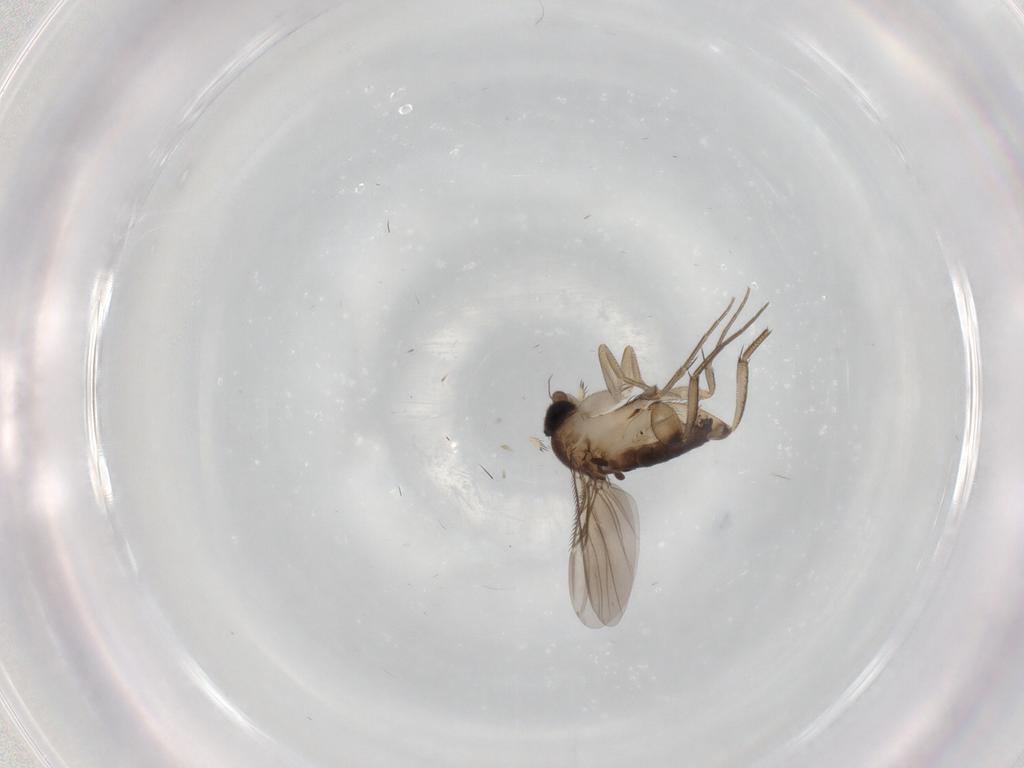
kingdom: Animalia
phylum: Arthropoda
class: Insecta
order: Diptera
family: Phoridae
